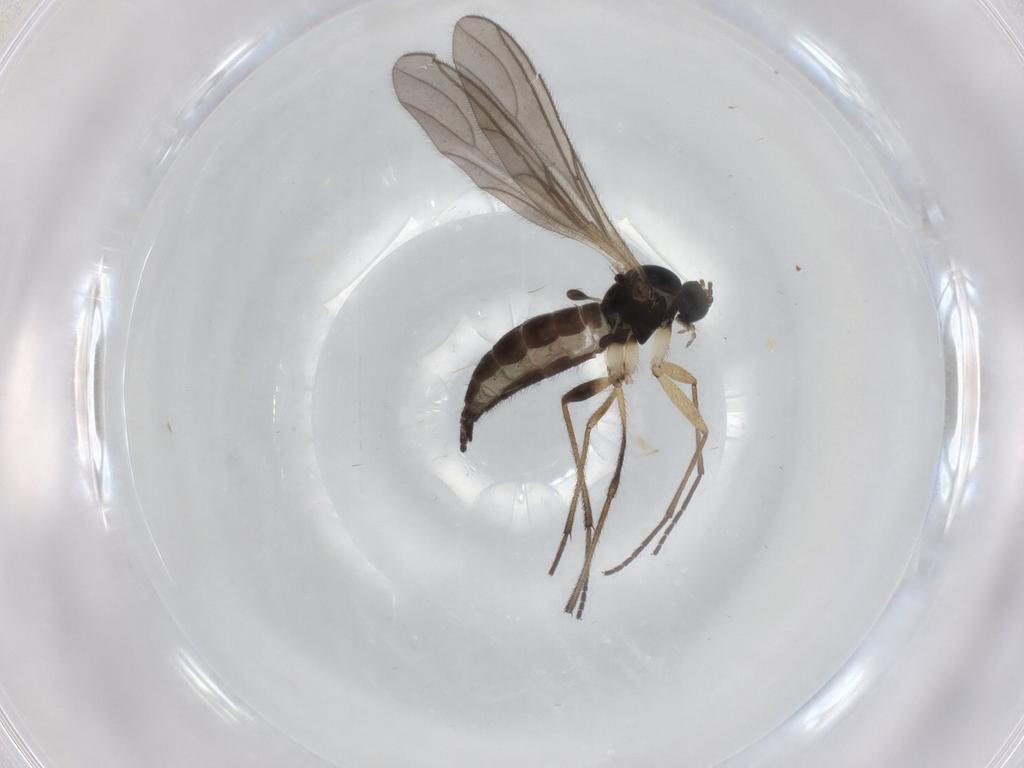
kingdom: Animalia
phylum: Arthropoda
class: Insecta
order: Diptera
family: Sciaridae
